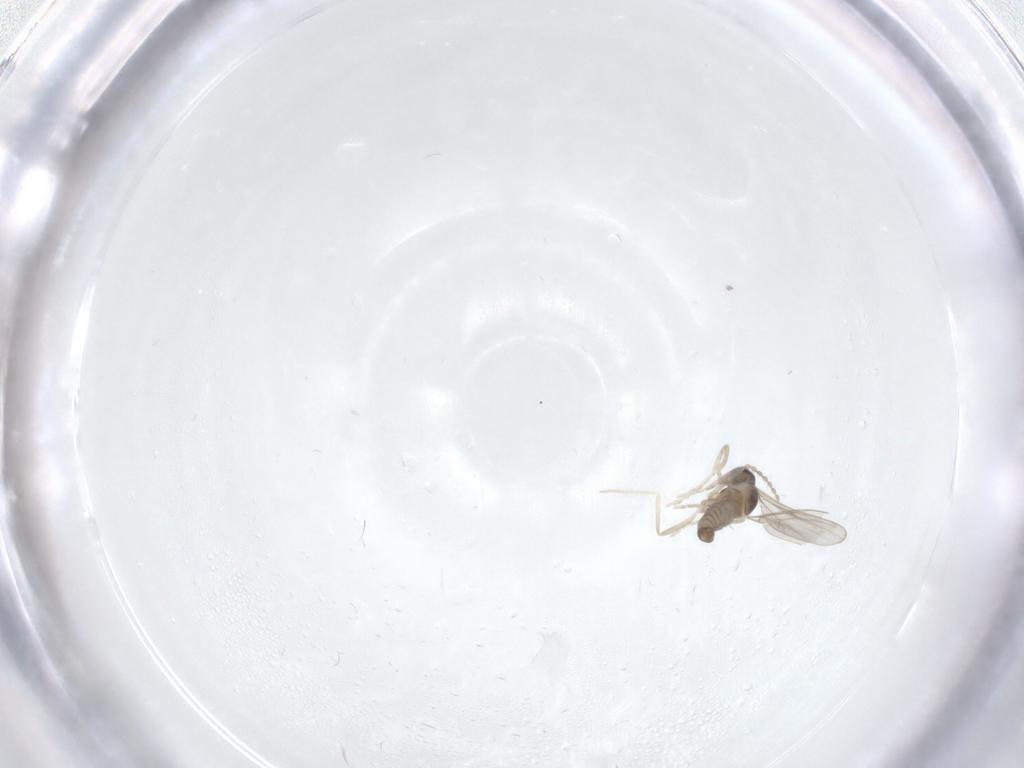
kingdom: Animalia
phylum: Arthropoda
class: Insecta
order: Diptera
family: Cecidomyiidae
